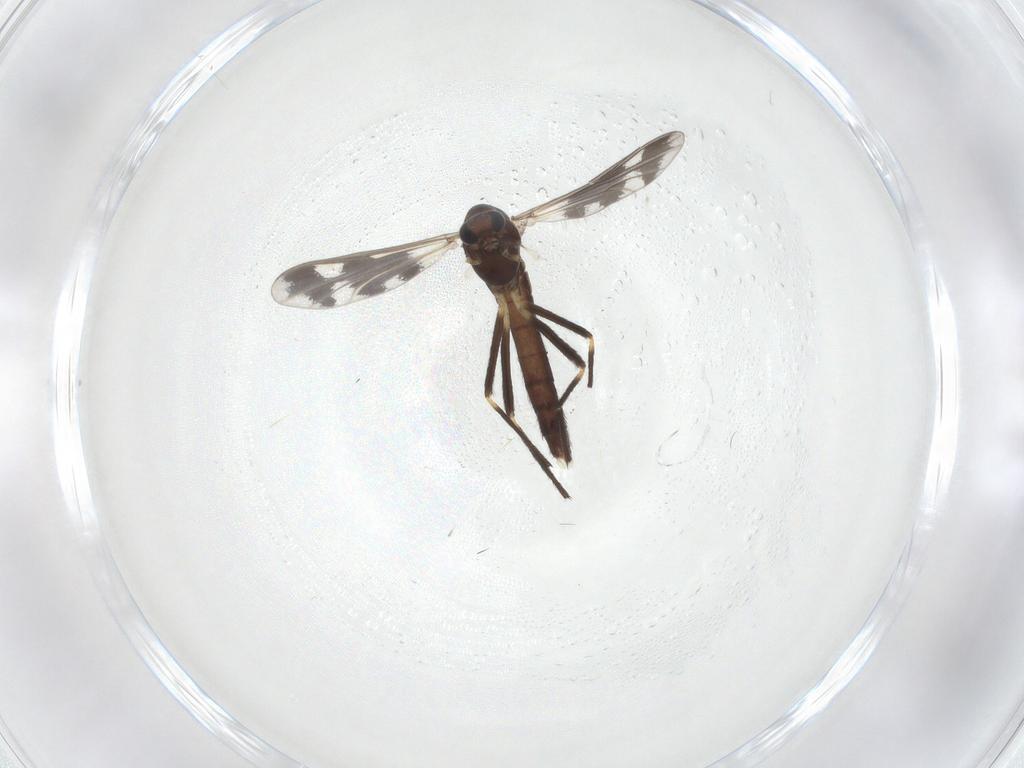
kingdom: Animalia
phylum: Arthropoda
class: Insecta
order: Diptera
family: Chironomidae
